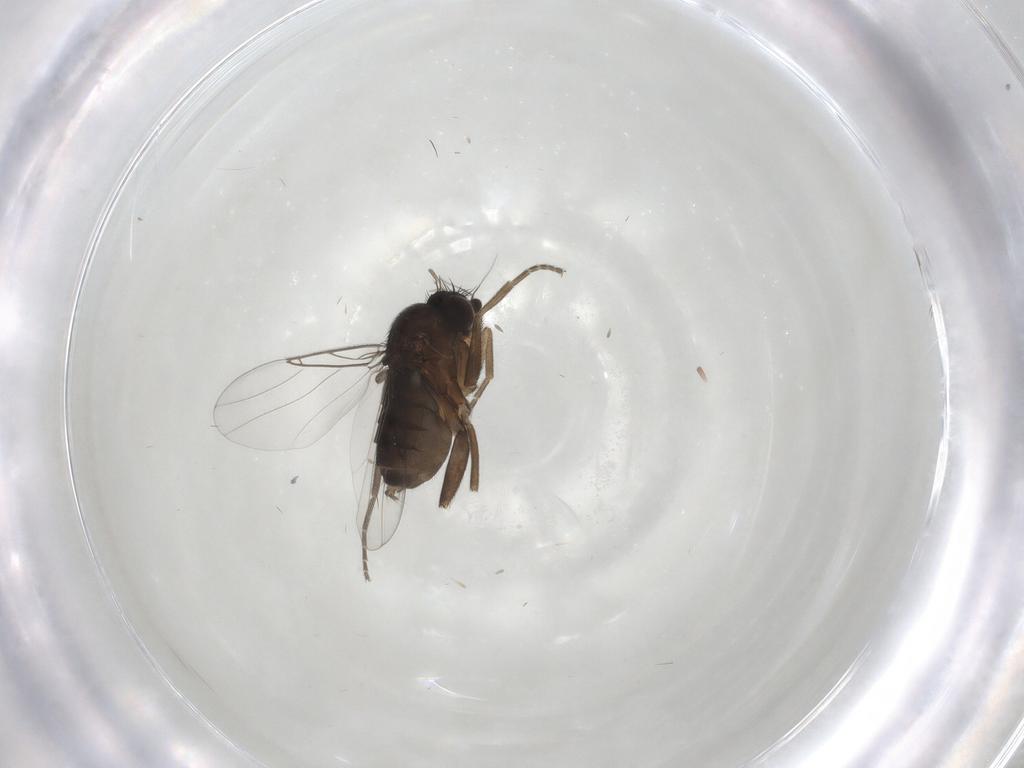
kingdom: Animalia
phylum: Arthropoda
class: Insecta
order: Diptera
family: Phoridae
